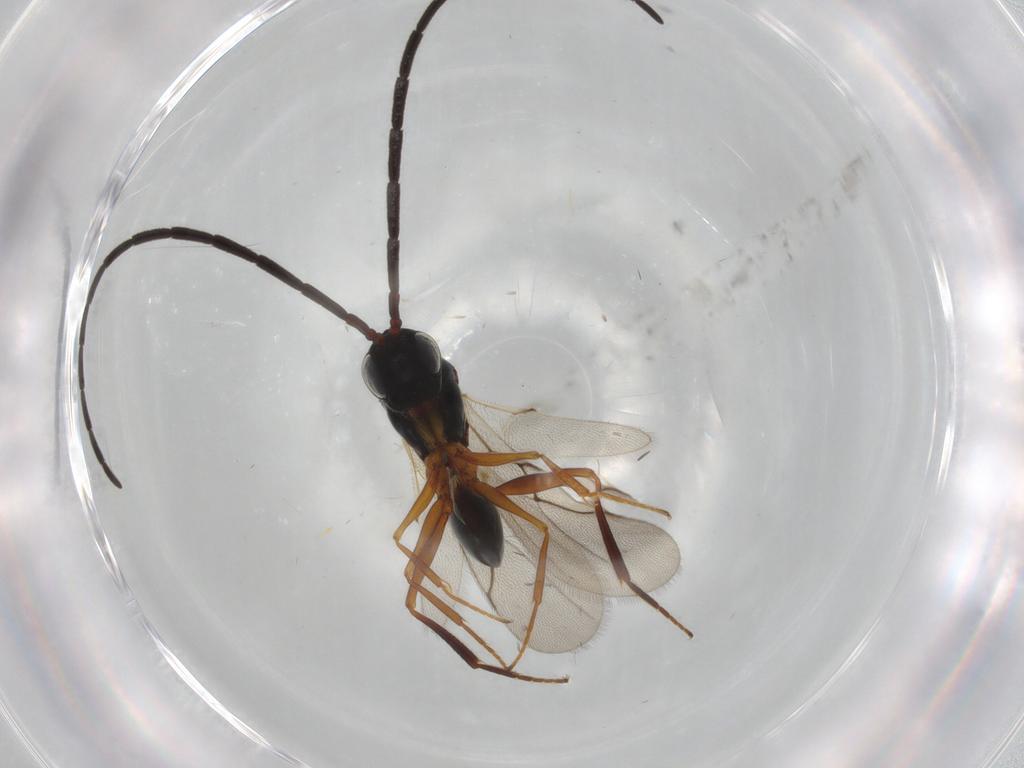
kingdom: Animalia
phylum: Arthropoda
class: Insecta
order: Hymenoptera
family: Figitidae
